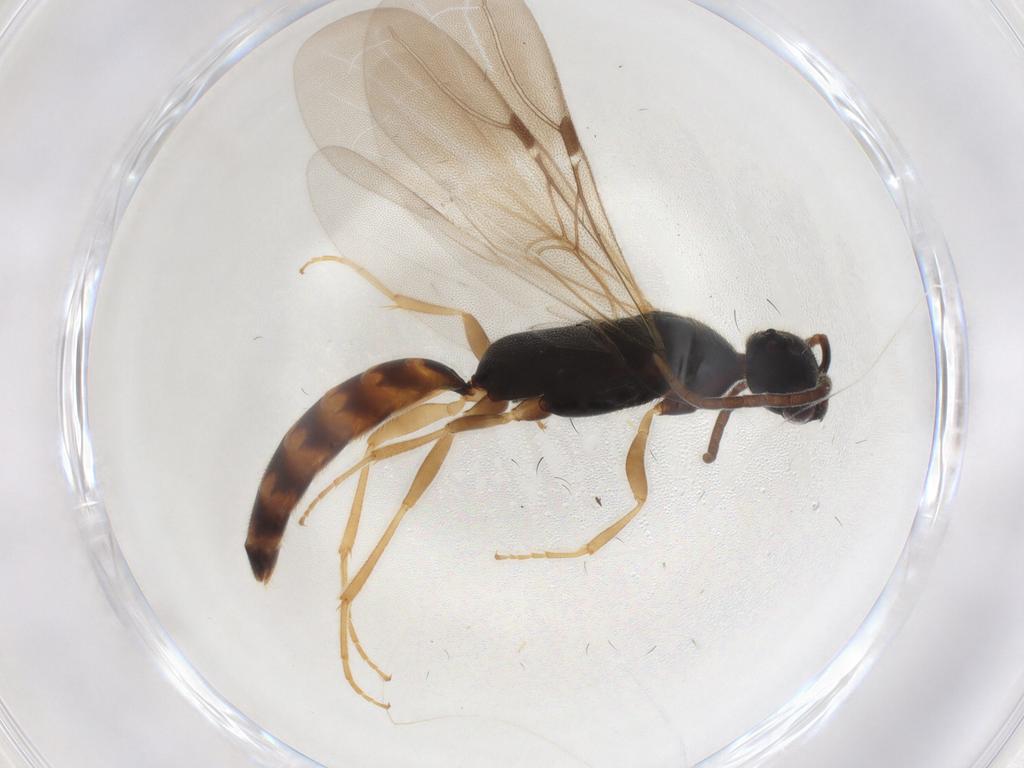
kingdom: Animalia
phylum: Arthropoda
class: Insecta
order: Hymenoptera
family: Bethylidae
